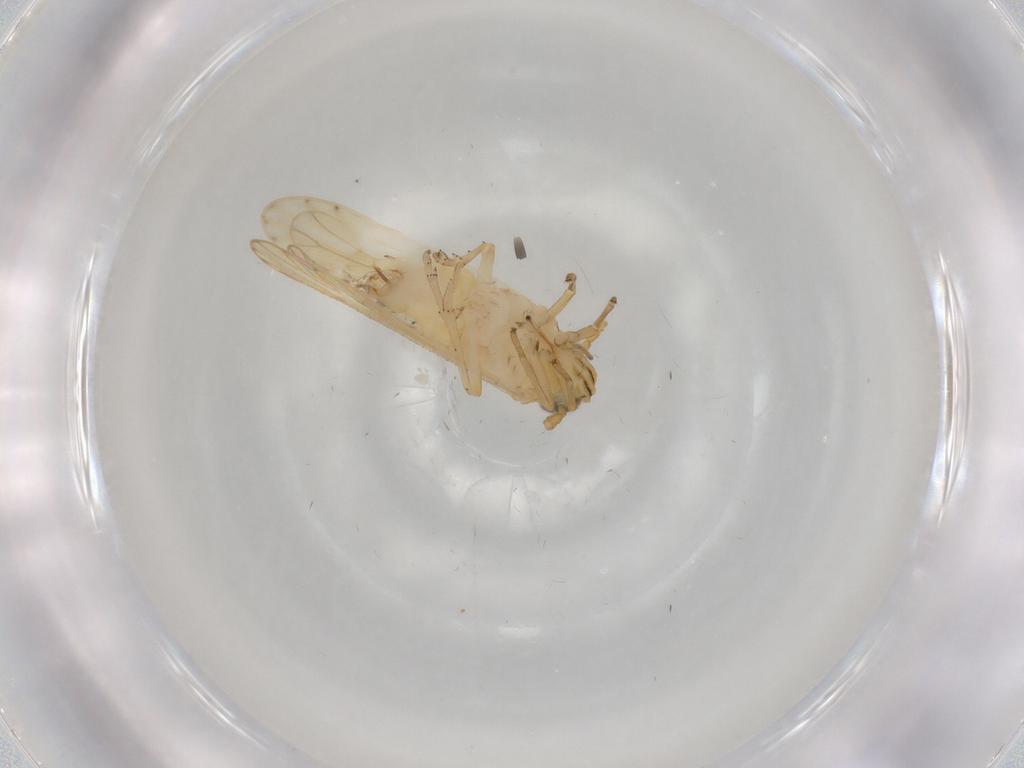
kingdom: Animalia
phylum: Arthropoda
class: Insecta
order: Hemiptera
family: Delphacidae
